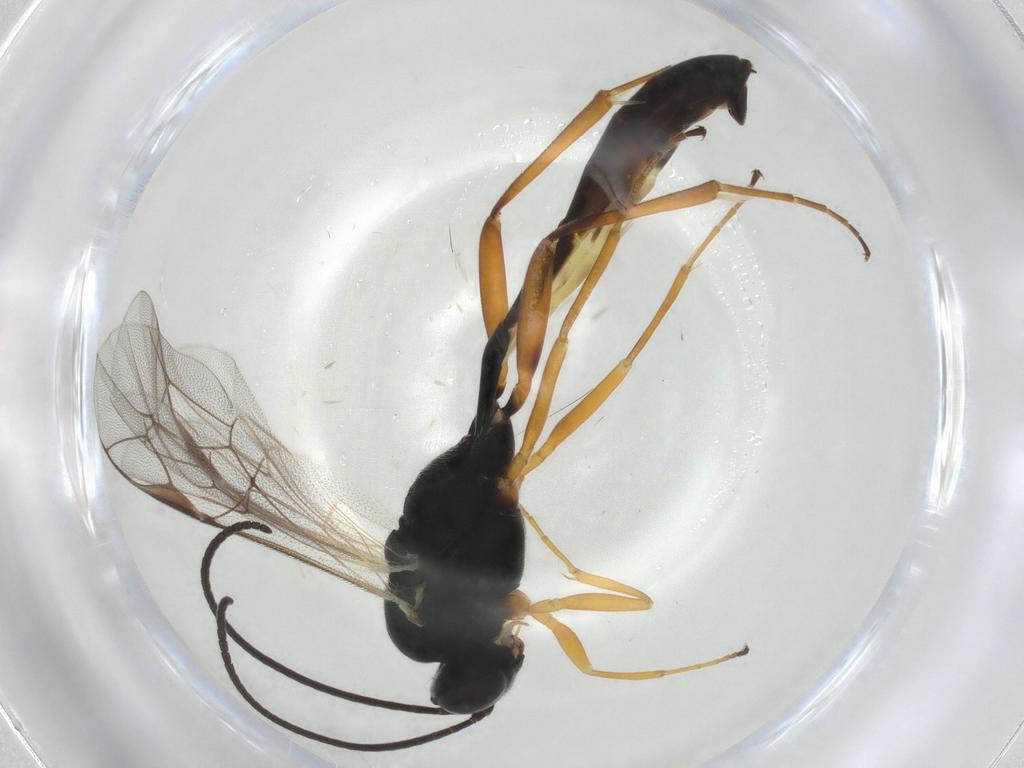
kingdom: Animalia
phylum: Arthropoda
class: Insecta
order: Hymenoptera
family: Ichneumonidae
